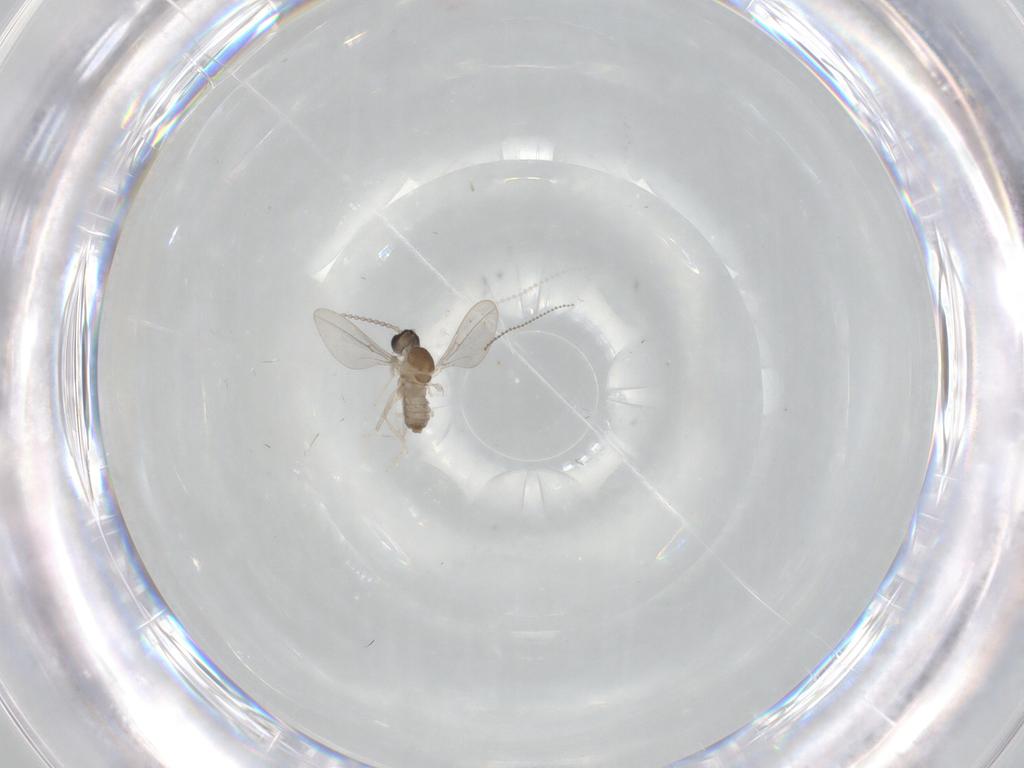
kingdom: Animalia
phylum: Arthropoda
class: Insecta
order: Diptera
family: Cecidomyiidae
